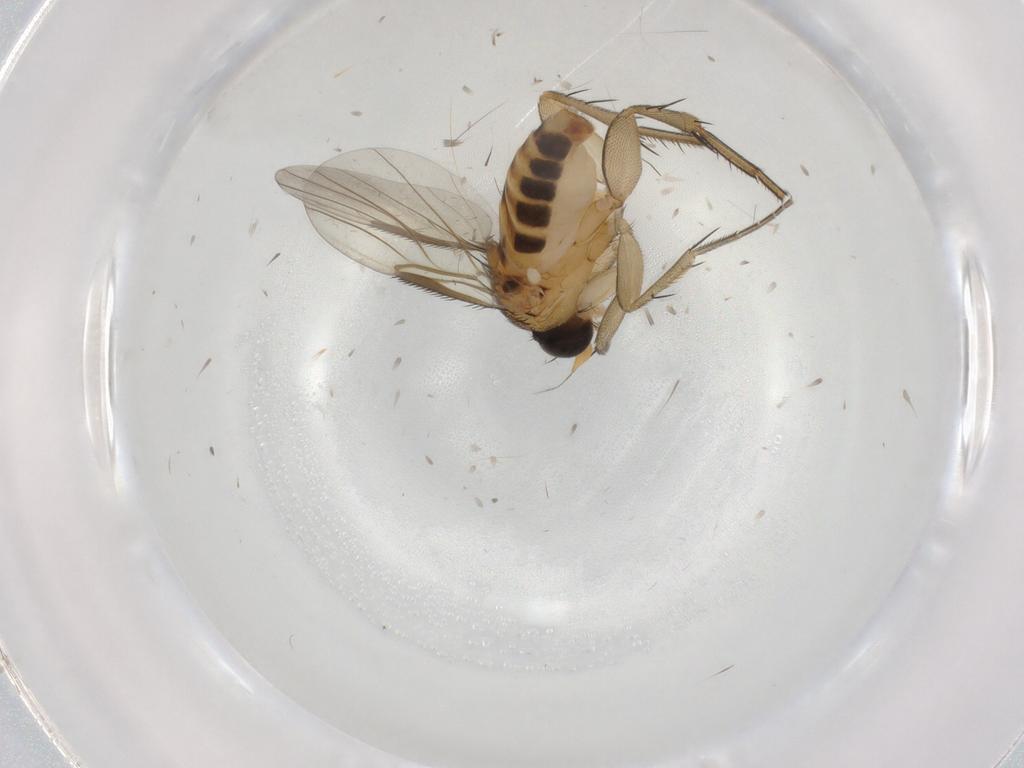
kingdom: Animalia
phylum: Arthropoda
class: Insecta
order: Diptera
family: Phoridae
